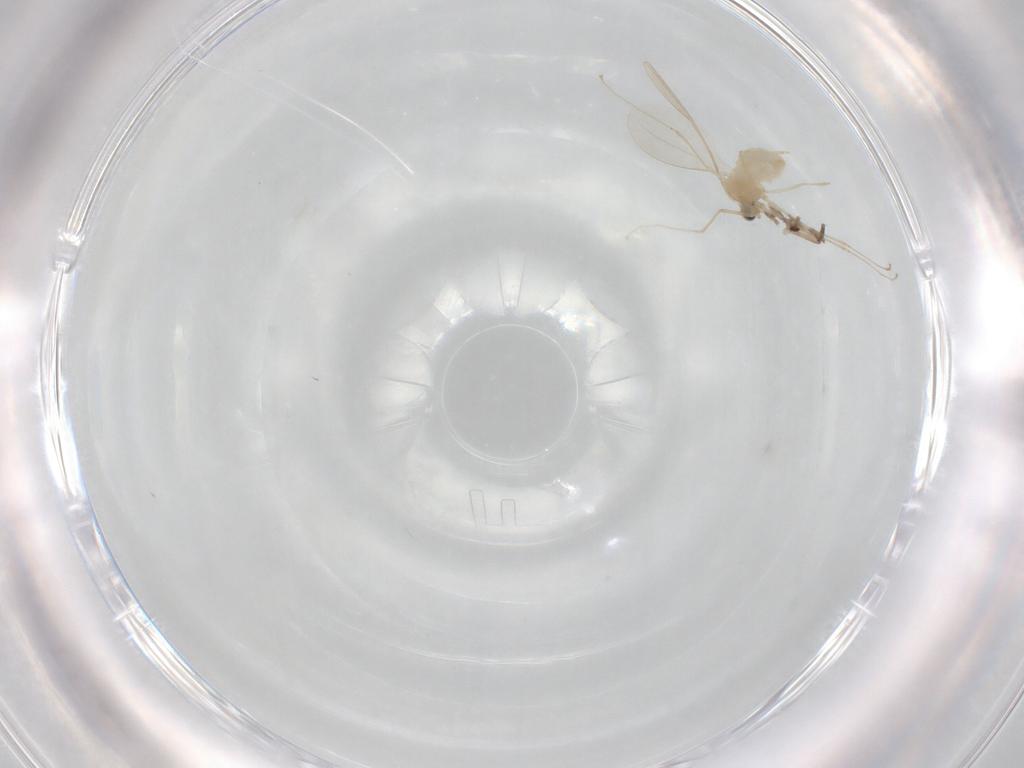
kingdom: Animalia
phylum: Arthropoda
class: Insecta
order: Diptera
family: Cecidomyiidae
